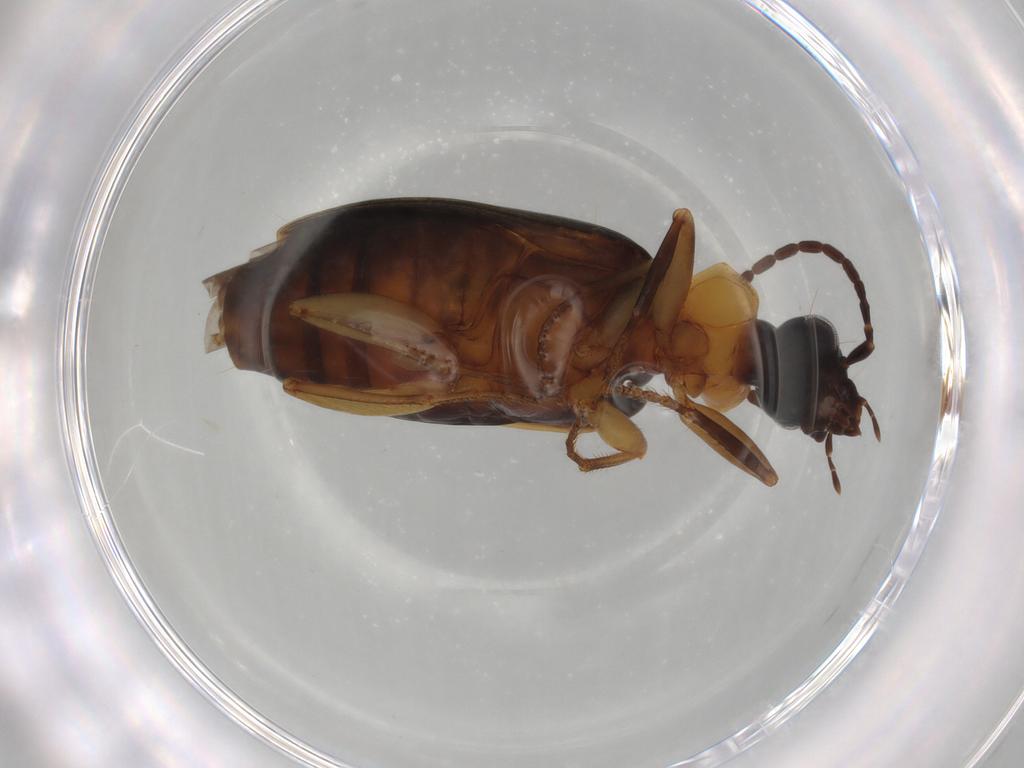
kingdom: Animalia
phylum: Arthropoda
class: Insecta
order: Coleoptera
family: Carabidae
